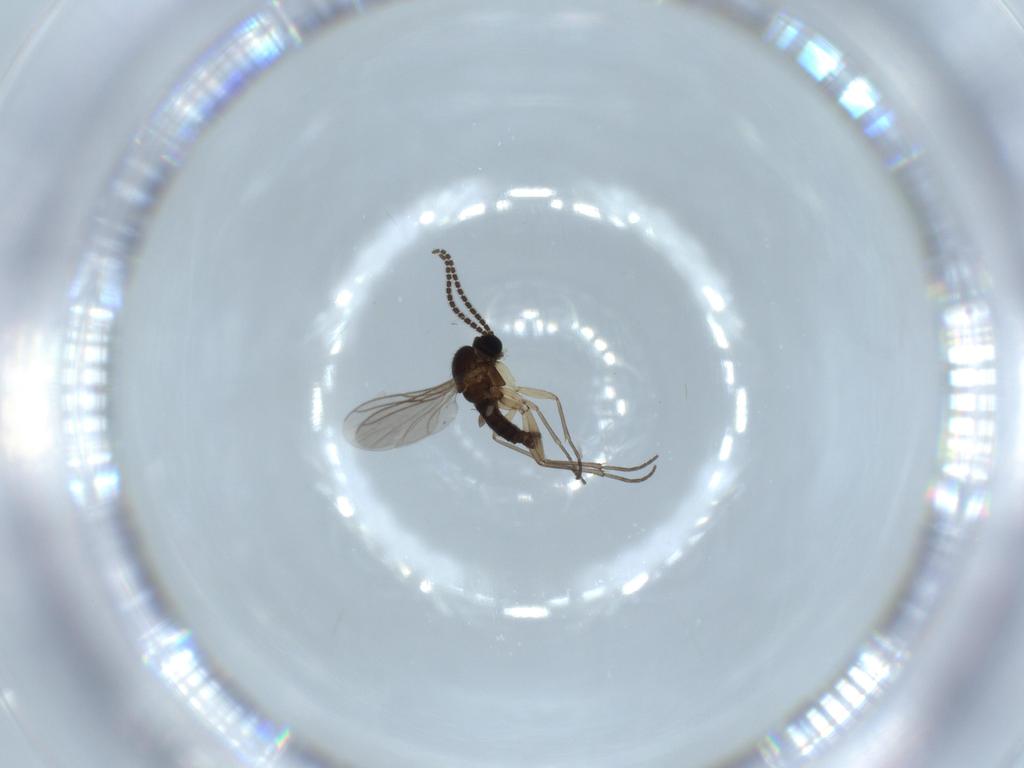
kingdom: Animalia
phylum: Arthropoda
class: Insecta
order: Diptera
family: Sciaridae
